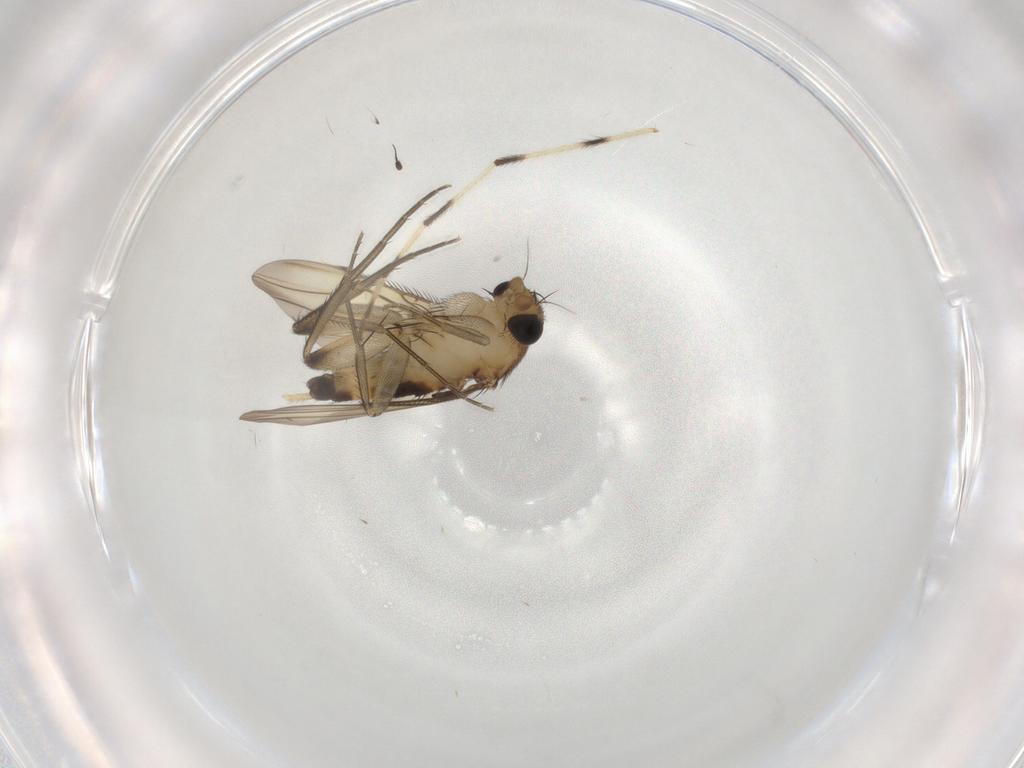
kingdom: Animalia
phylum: Arthropoda
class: Insecta
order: Diptera
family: Phoridae
